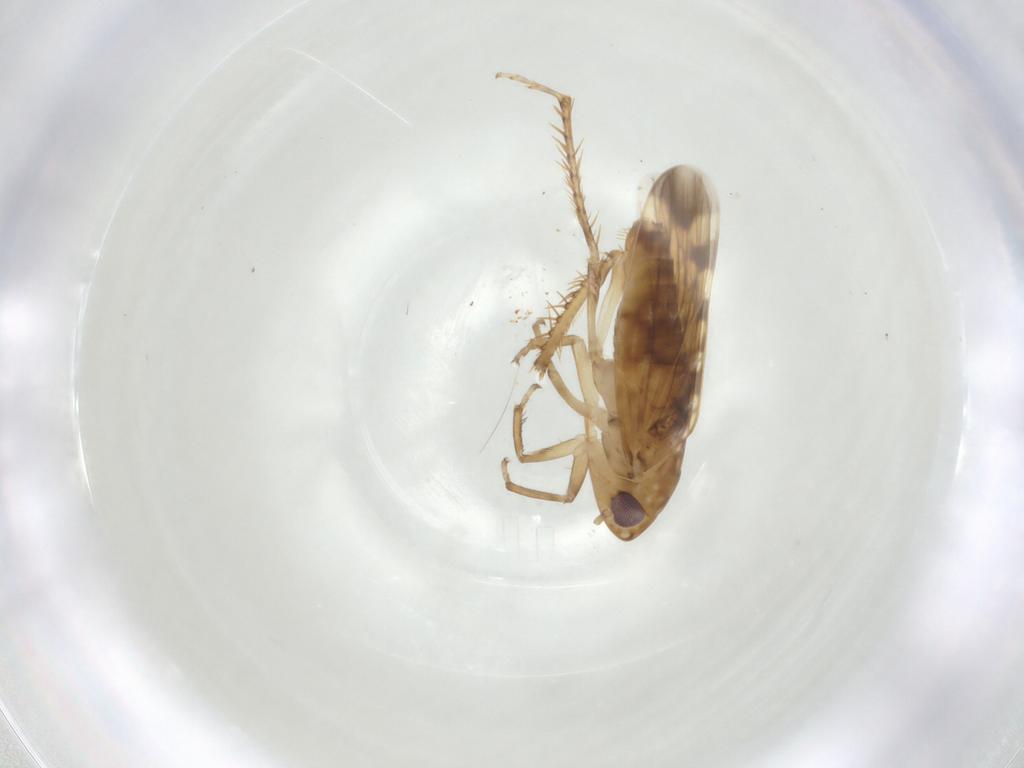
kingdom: Animalia
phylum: Arthropoda
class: Insecta
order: Hemiptera
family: Cicadellidae
